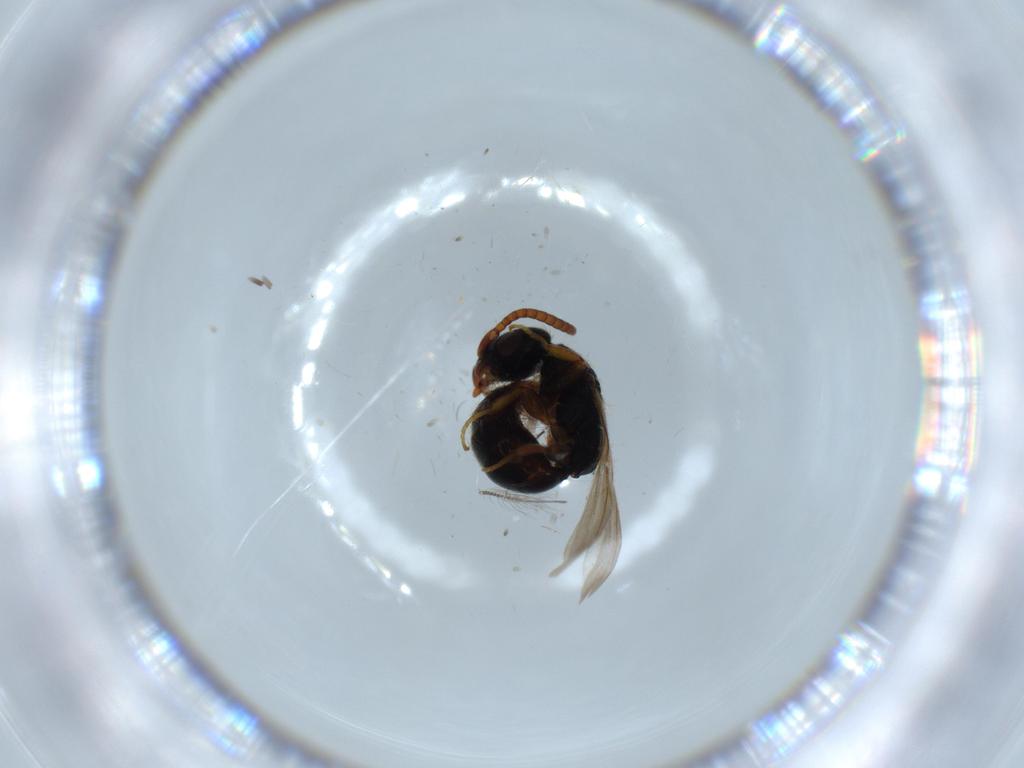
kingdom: Animalia
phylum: Arthropoda
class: Insecta
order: Hymenoptera
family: Bethylidae
